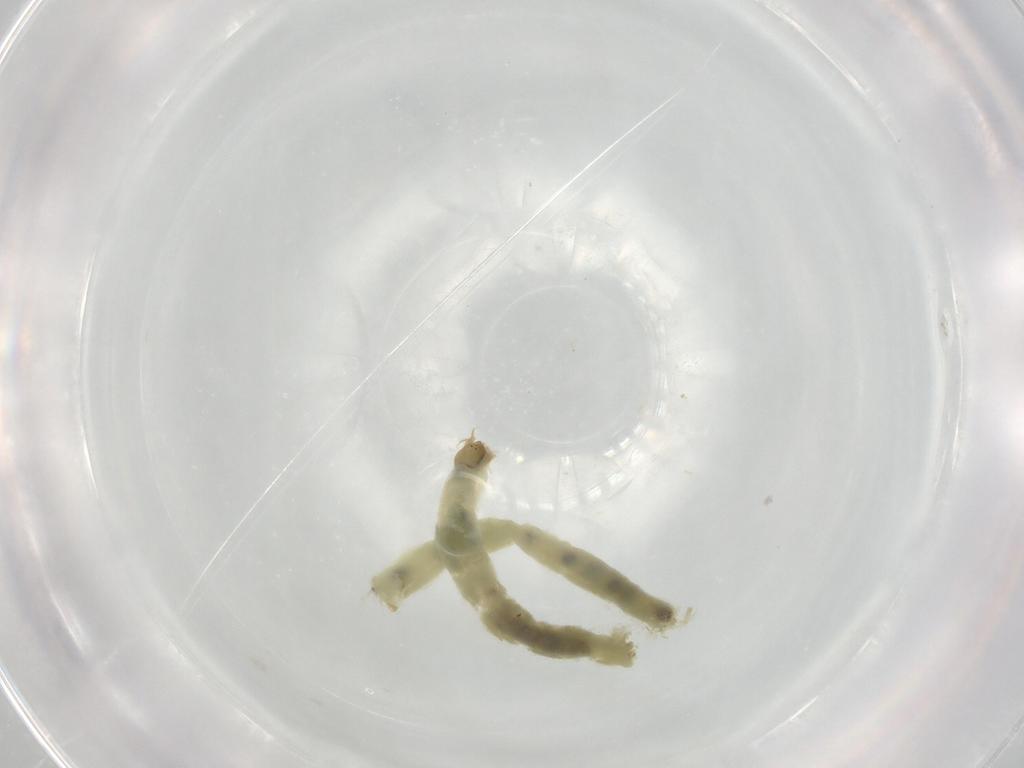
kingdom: Animalia
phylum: Arthropoda
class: Insecta
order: Diptera
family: Chironomidae
